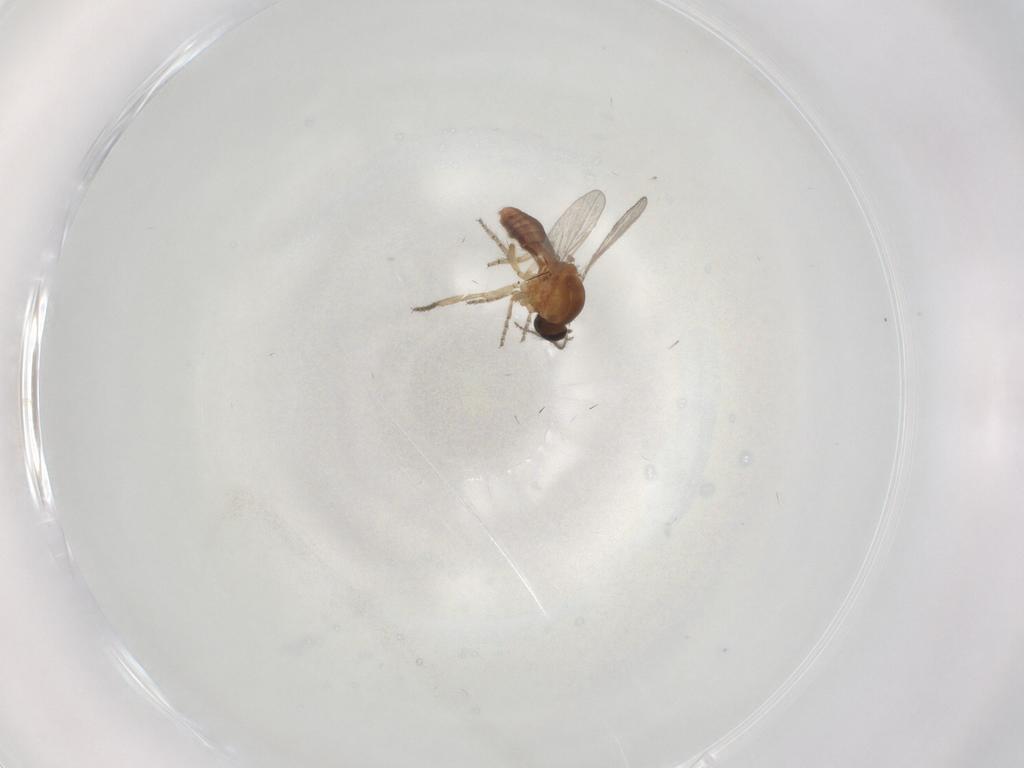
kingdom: Animalia
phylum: Arthropoda
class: Insecta
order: Diptera
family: Ceratopogonidae
